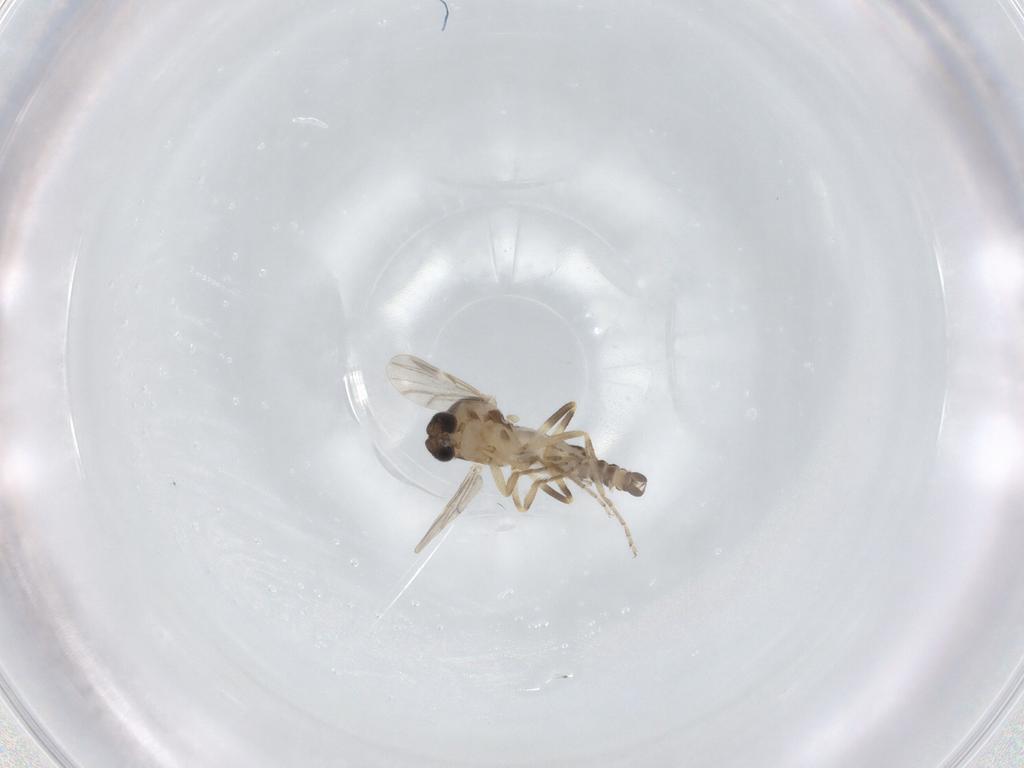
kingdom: Animalia
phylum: Arthropoda
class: Insecta
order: Diptera
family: Ceratopogonidae
